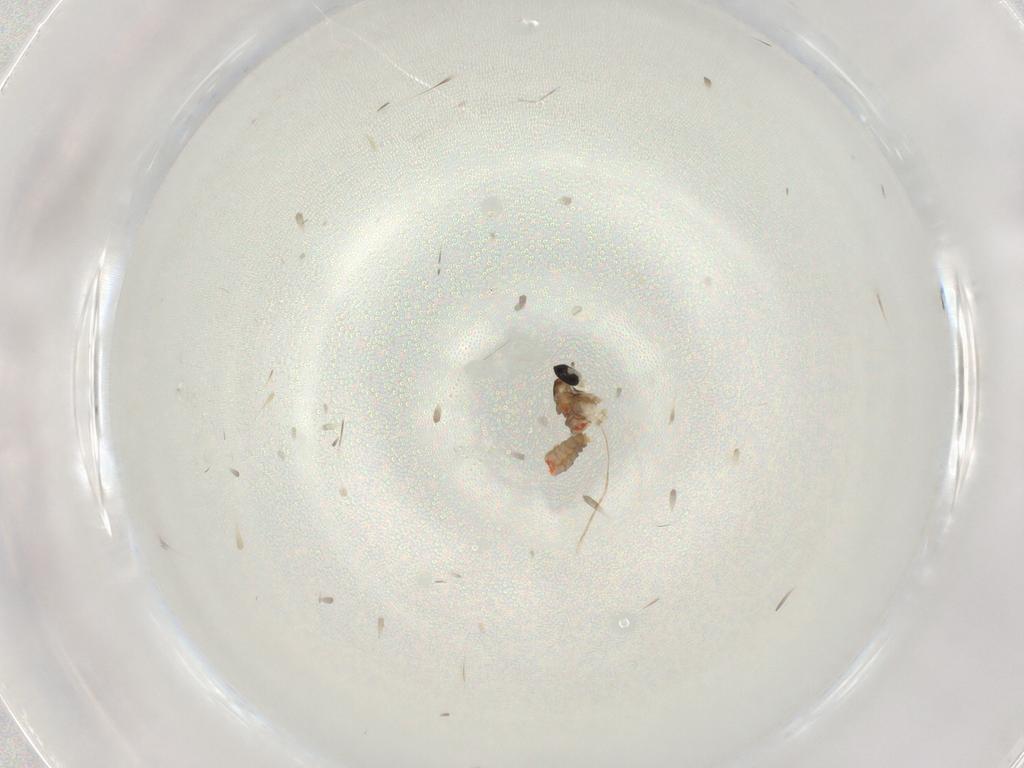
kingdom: Animalia
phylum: Arthropoda
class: Insecta
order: Diptera
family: Cecidomyiidae
